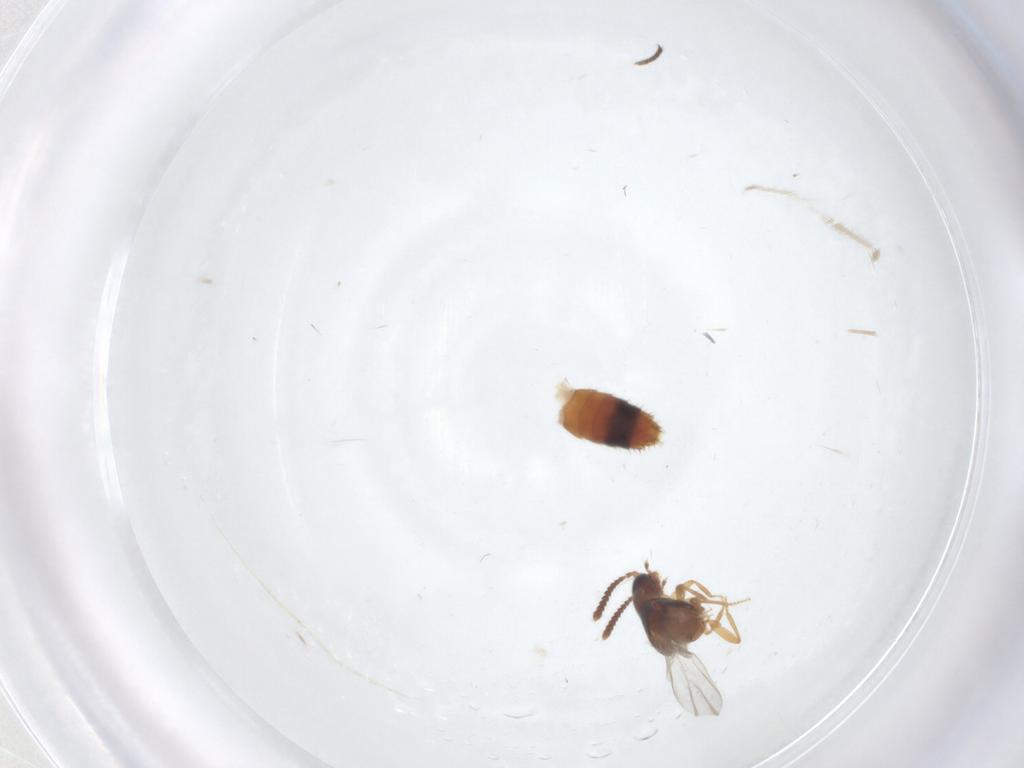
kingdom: Animalia
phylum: Arthropoda
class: Insecta
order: Coleoptera
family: Staphylinidae
